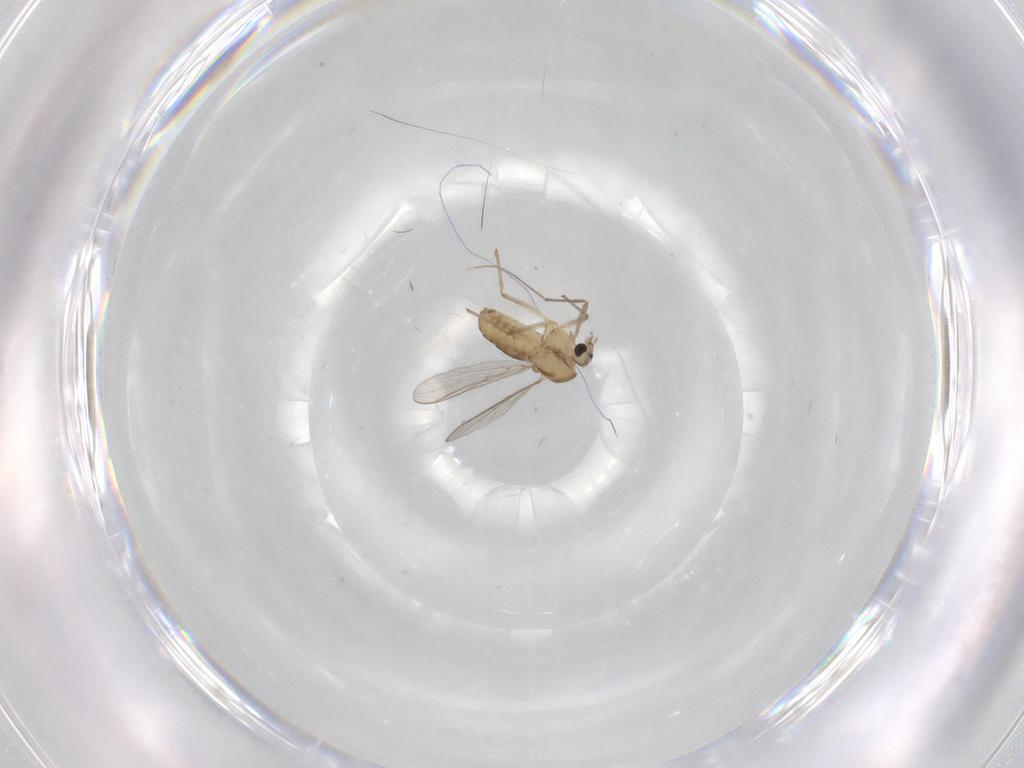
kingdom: Animalia
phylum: Arthropoda
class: Insecta
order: Diptera
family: Chironomidae
